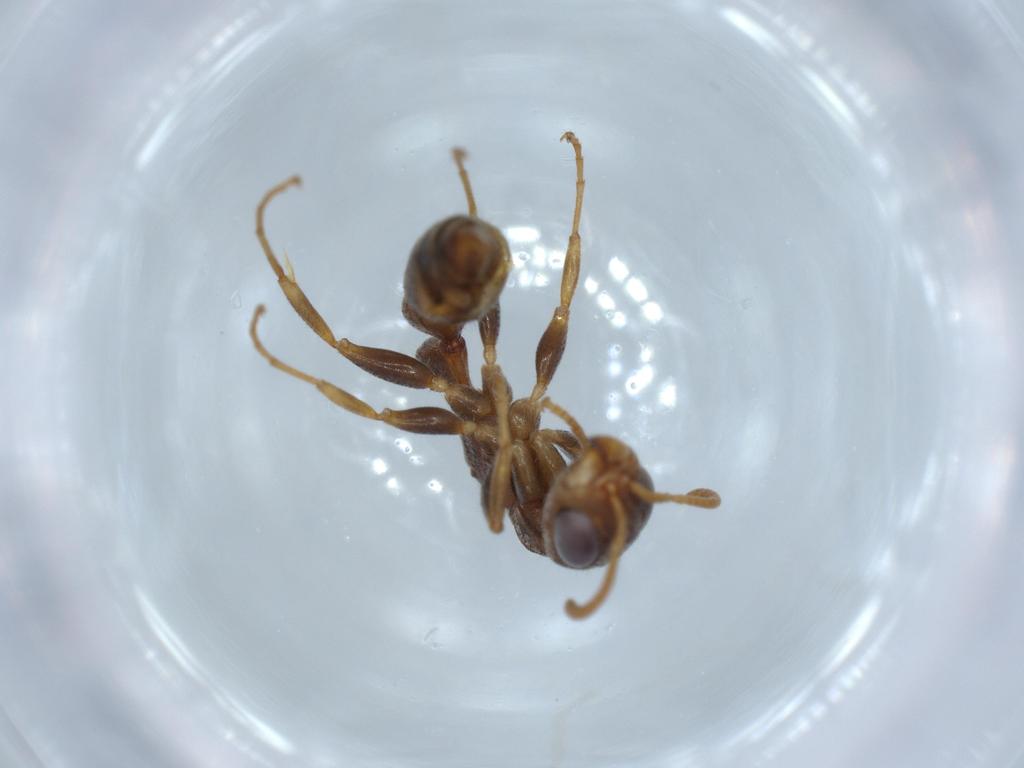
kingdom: Animalia
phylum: Arthropoda
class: Insecta
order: Hymenoptera
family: Formicidae
